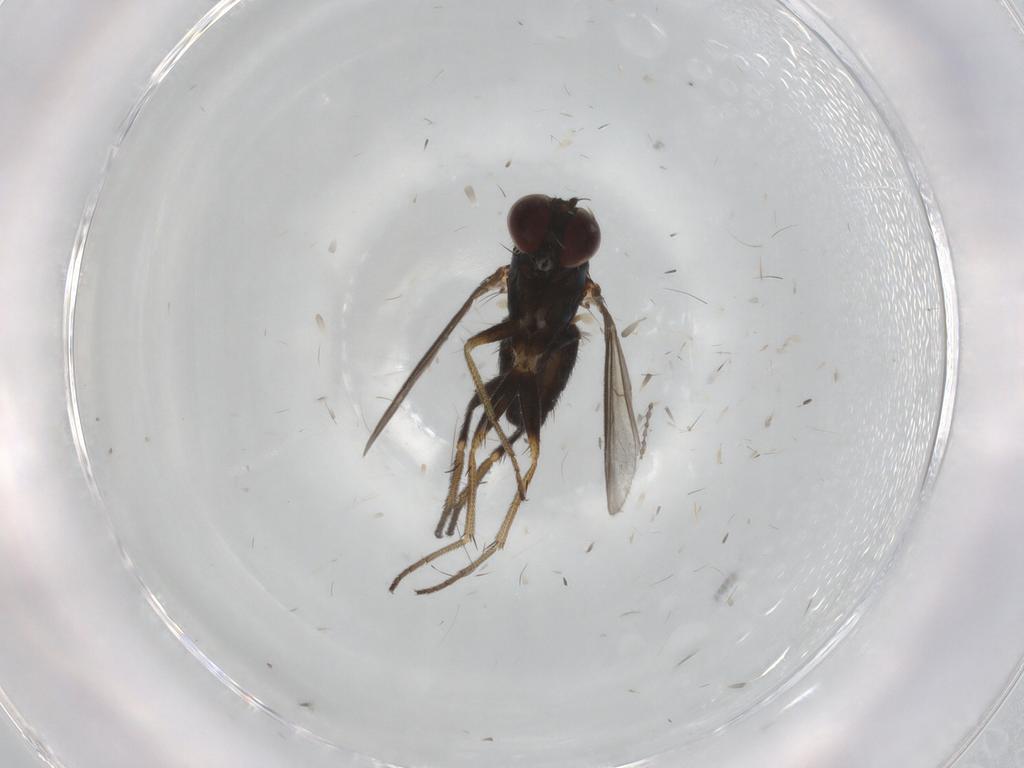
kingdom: Animalia
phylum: Arthropoda
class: Insecta
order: Diptera
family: Cecidomyiidae
